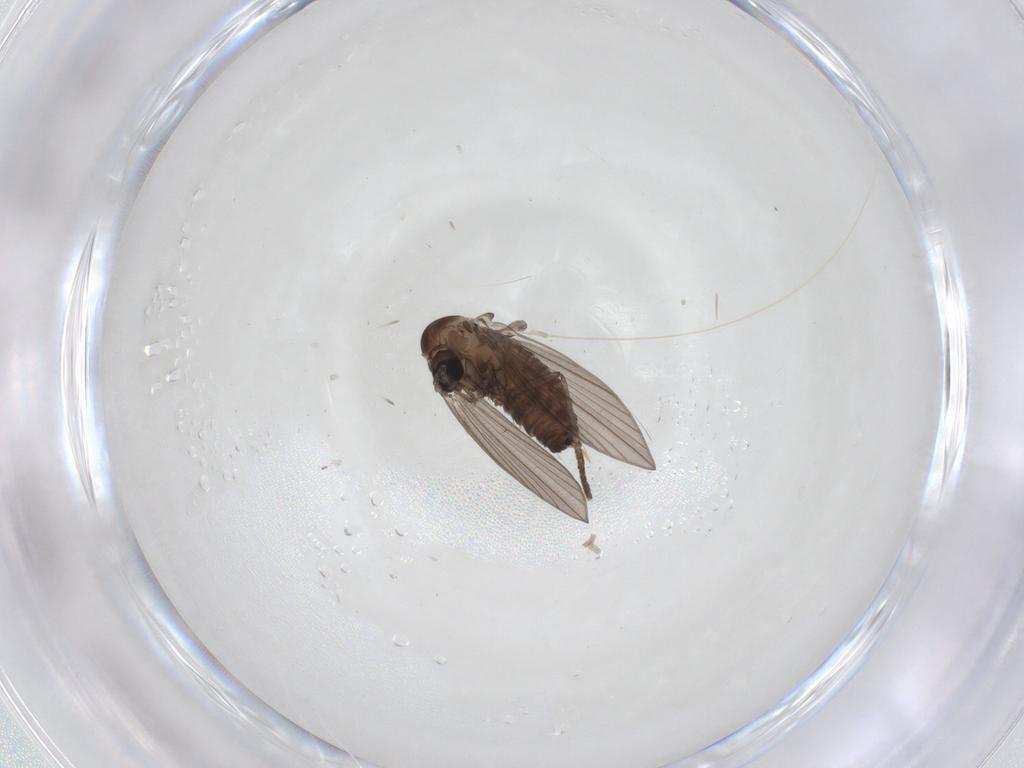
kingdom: Animalia
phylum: Arthropoda
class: Insecta
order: Diptera
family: Psychodidae
